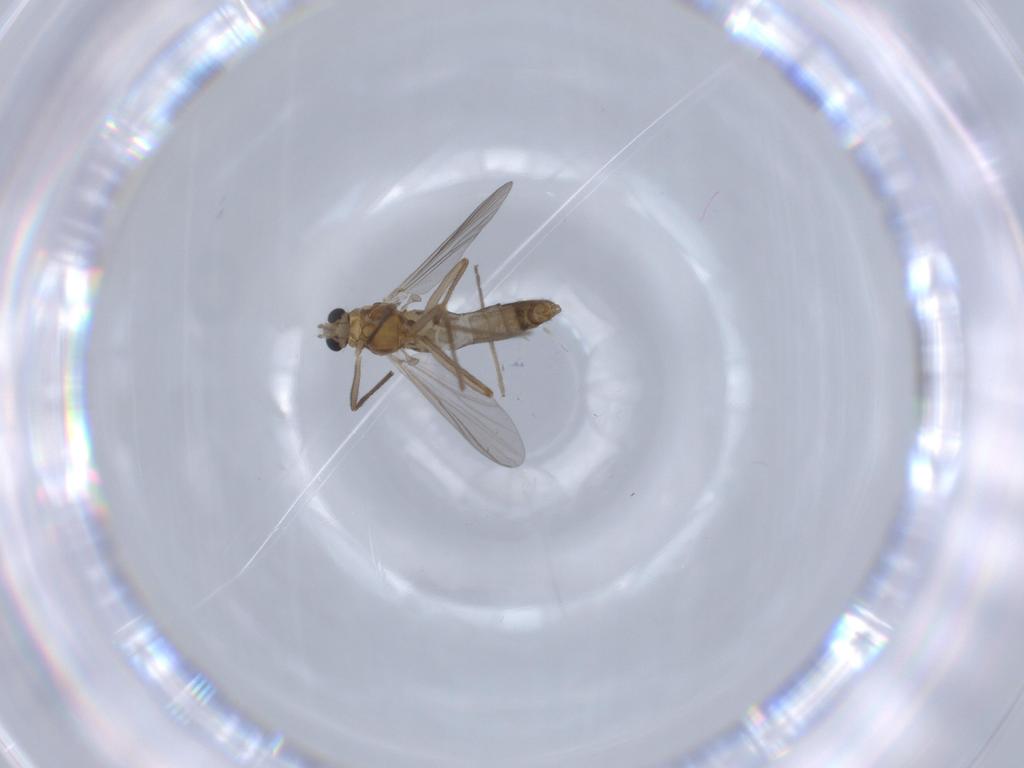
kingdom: Animalia
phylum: Arthropoda
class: Insecta
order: Diptera
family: Chironomidae
